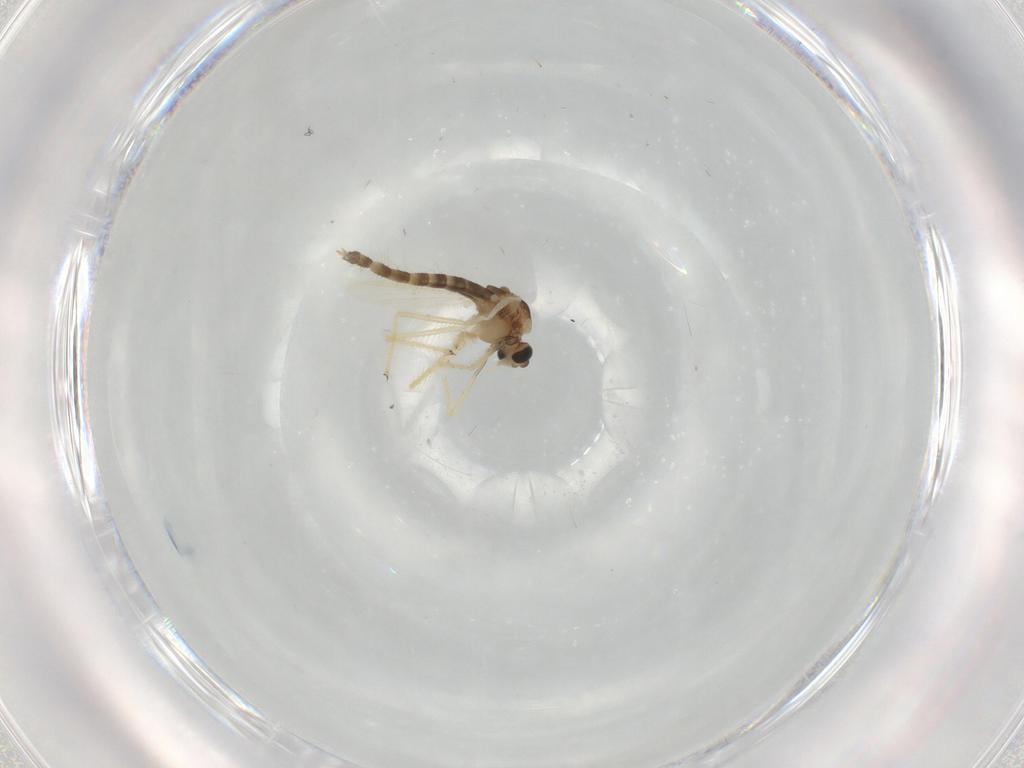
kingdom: Animalia
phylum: Arthropoda
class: Insecta
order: Diptera
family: Chironomidae
